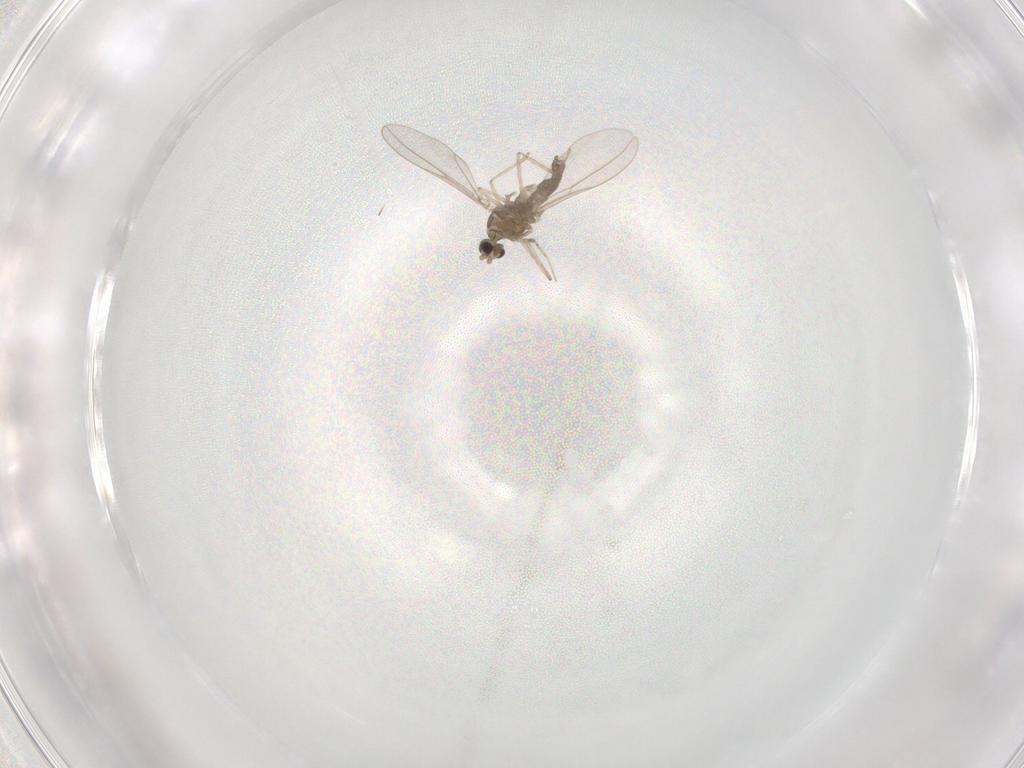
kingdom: Animalia
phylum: Arthropoda
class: Insecta
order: Diptera
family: Cecidomyiidae
